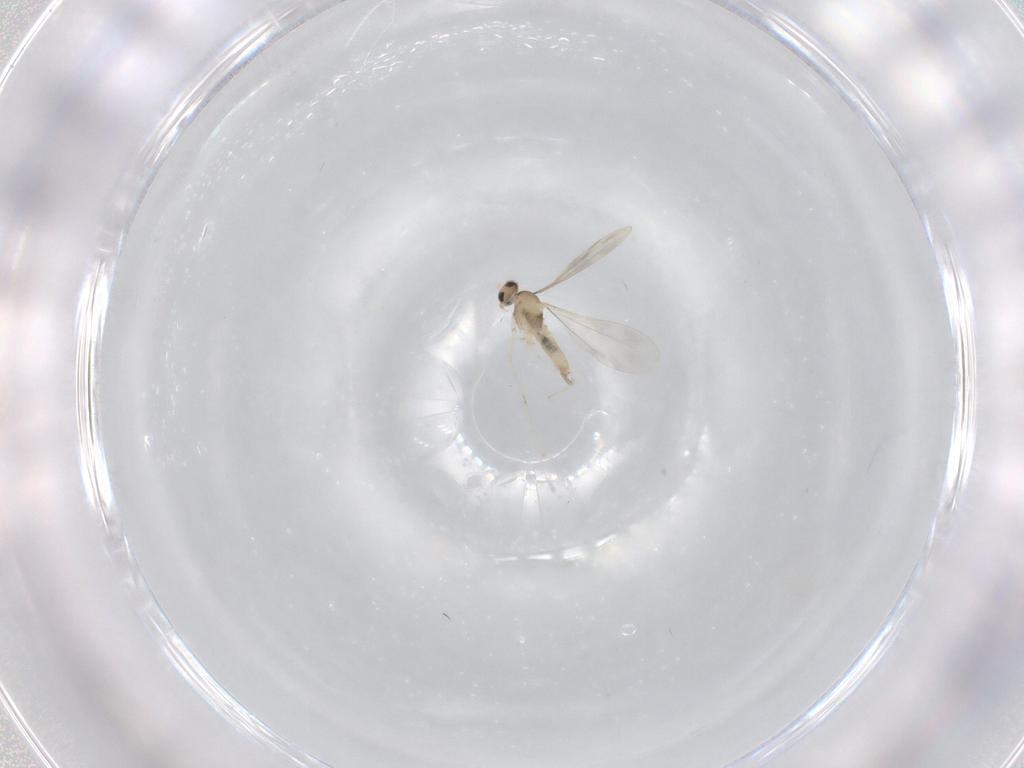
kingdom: Animalia
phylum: Arthropoda
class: Insecta
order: Diptera
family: Cecidomyiidae
